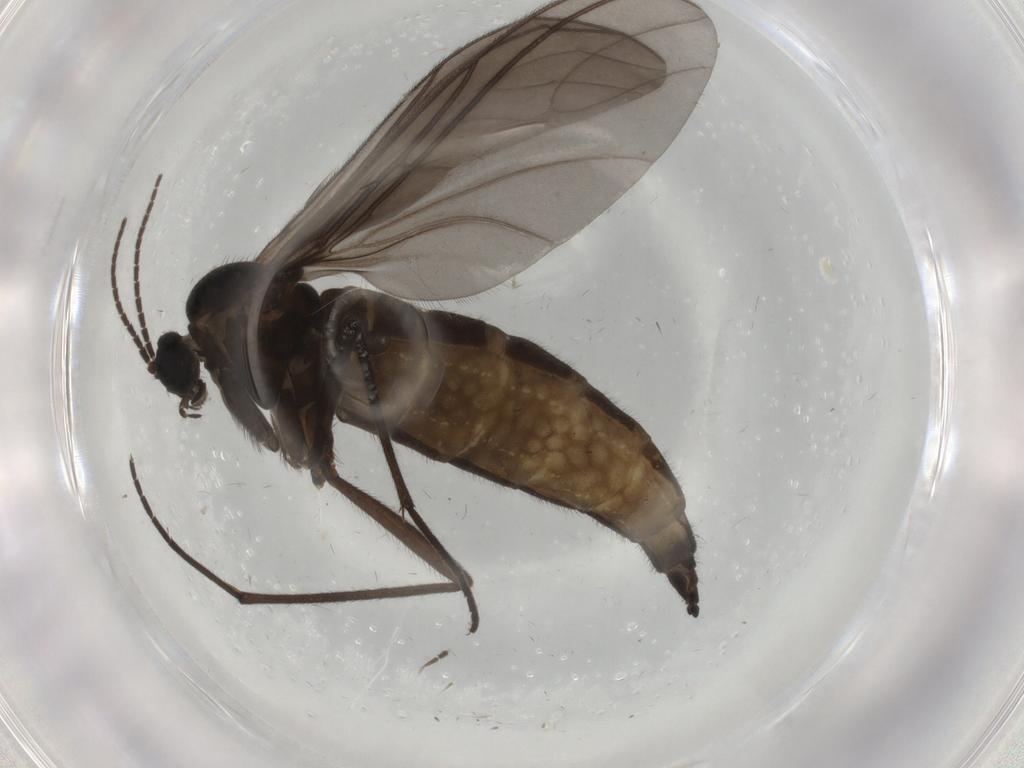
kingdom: Animalia
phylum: Arthropoda
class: Insecta
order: Diptera
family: Sciaridae
